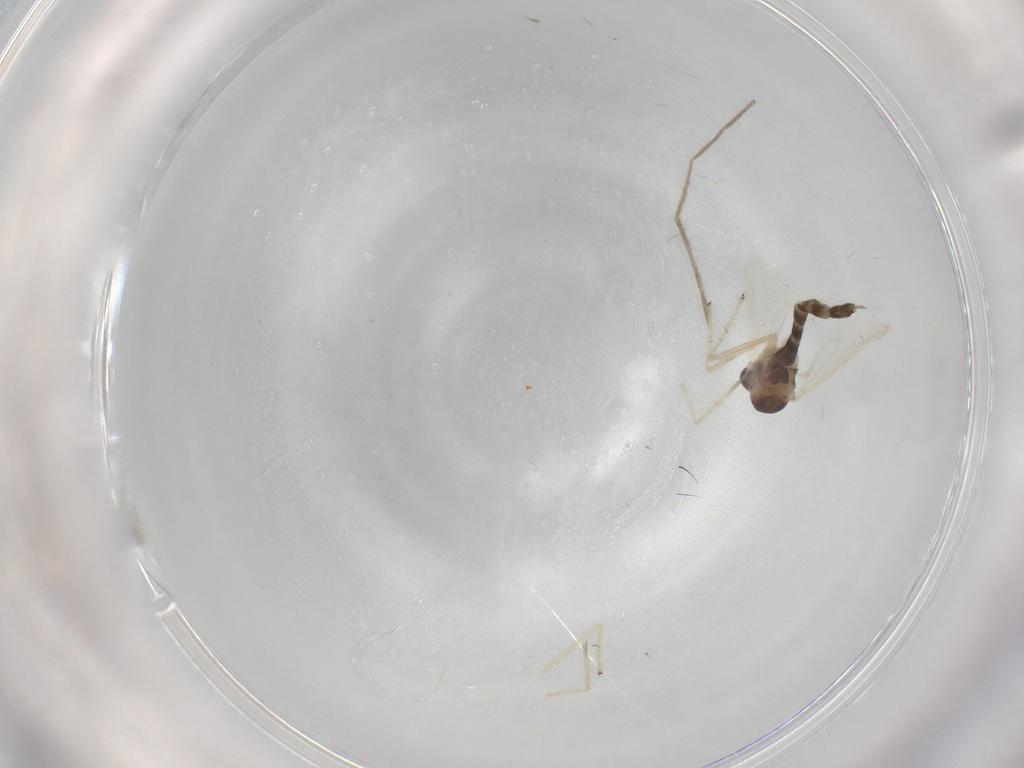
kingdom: Animalia
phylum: Arthropoda
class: Insecta
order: Diptera
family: Chironomidae
